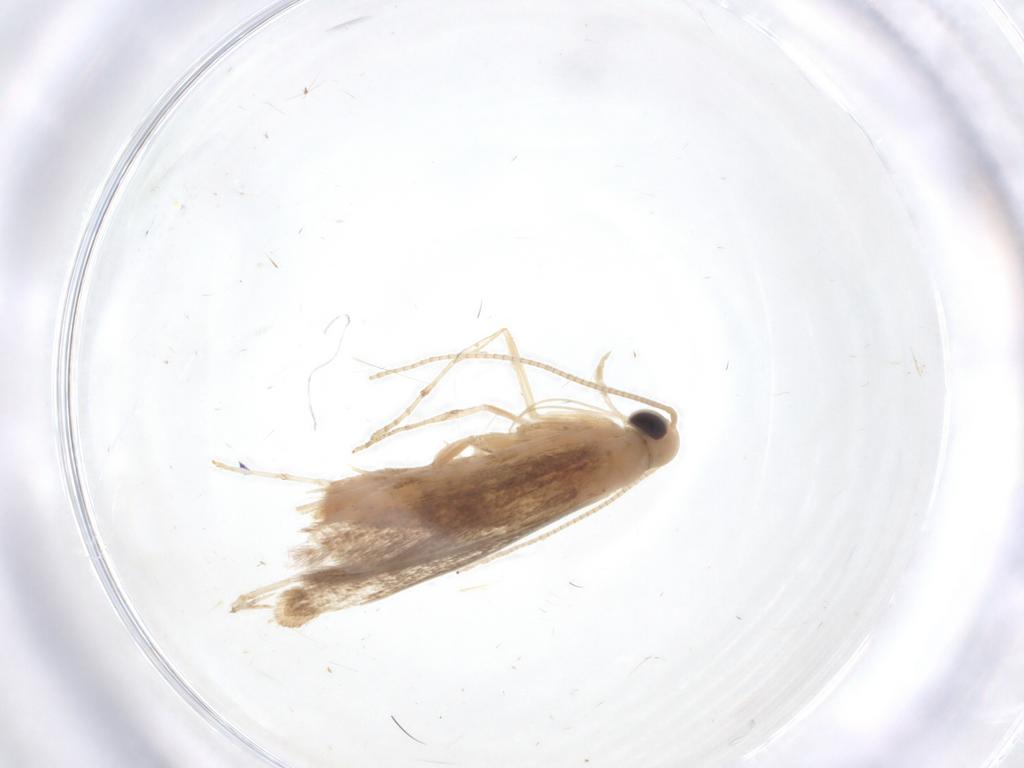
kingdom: Animalia
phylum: Arthropoda
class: Insecta
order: Lepidoptera
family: Gracillariidae
